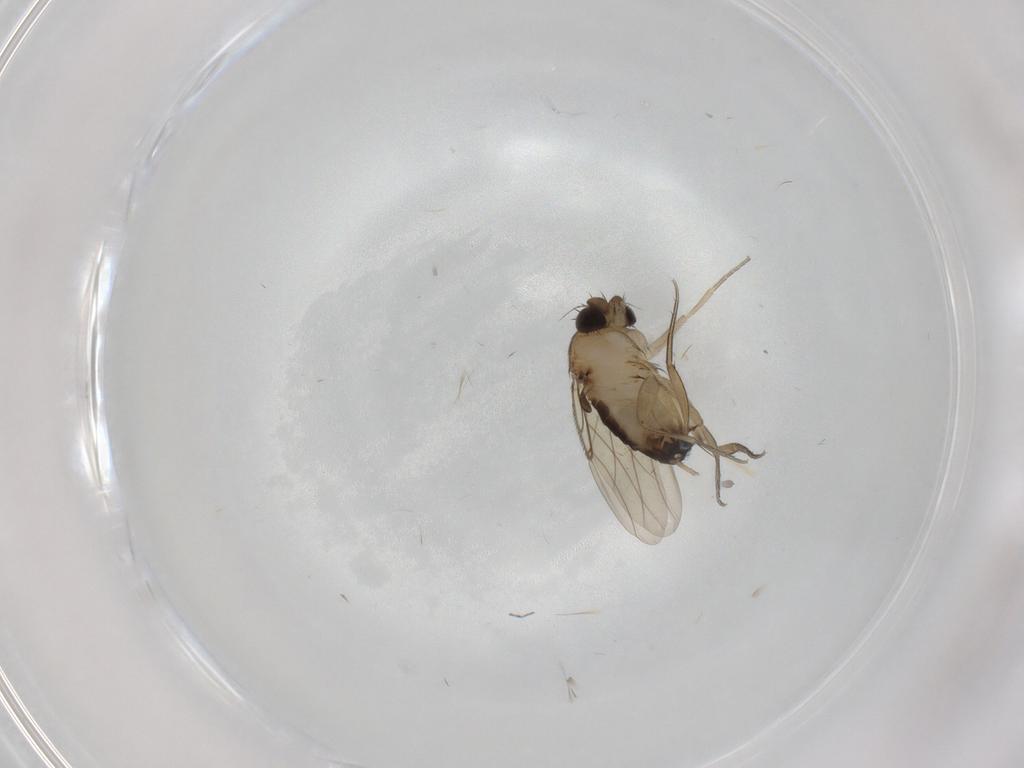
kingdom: Animalia
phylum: Arthropoda
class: Insecta
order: Diptera
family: Phoridae
